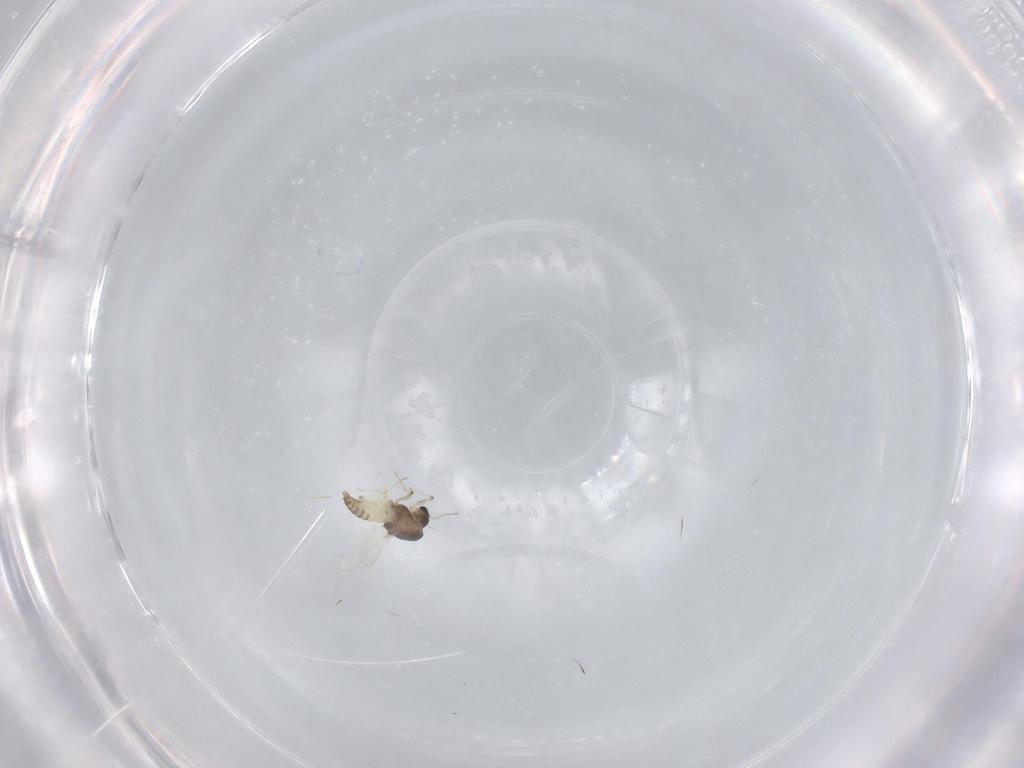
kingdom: Animalia
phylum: Arthropoda
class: Insecta
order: Diptera
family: Chironomidae
